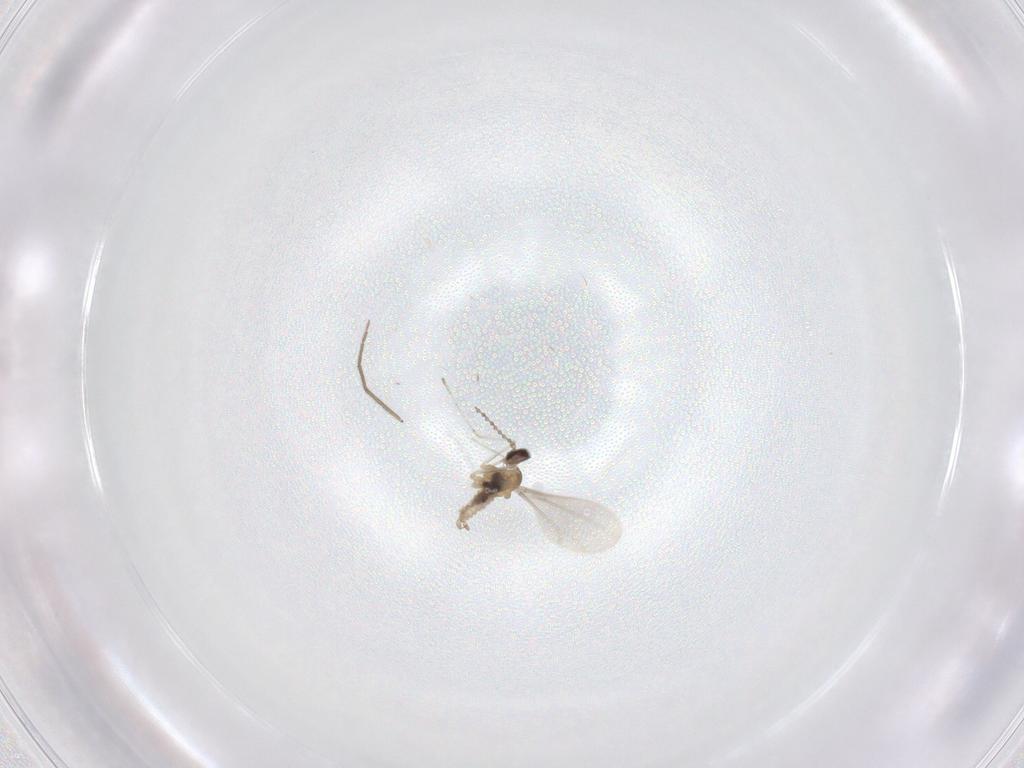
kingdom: Animalia
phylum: Arthropoda
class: Insecta
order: Diptera
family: Cecidomyiidae
